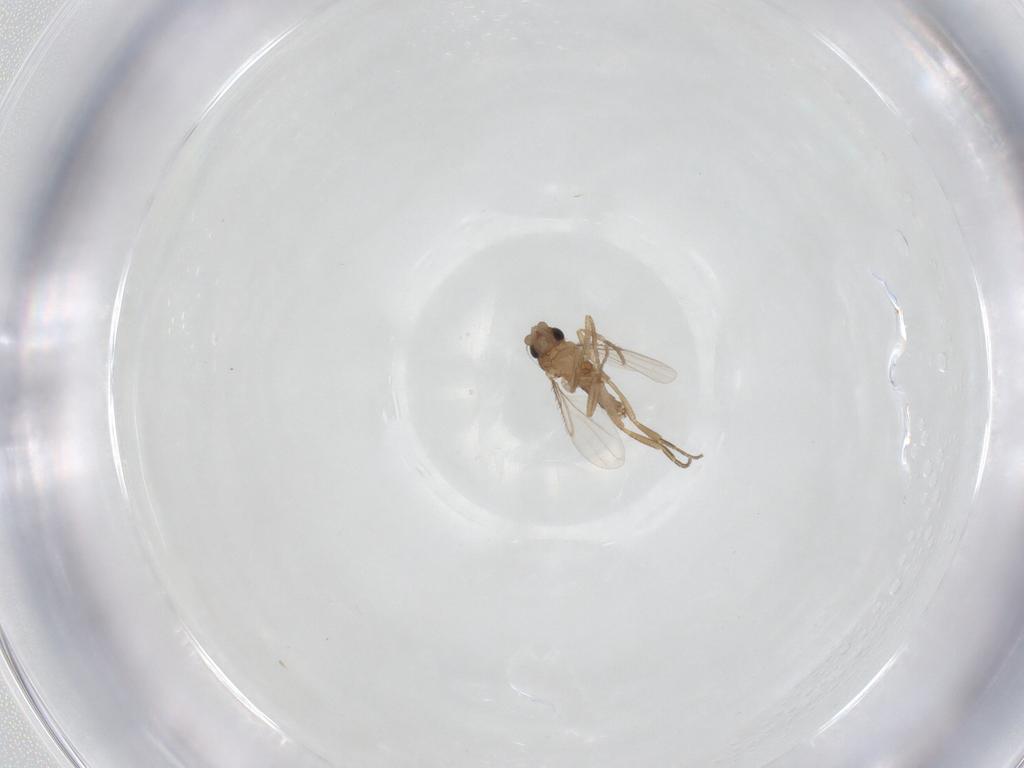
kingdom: Animalia
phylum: Arthropoda
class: Insecta
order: Diptera
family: Phoridae
